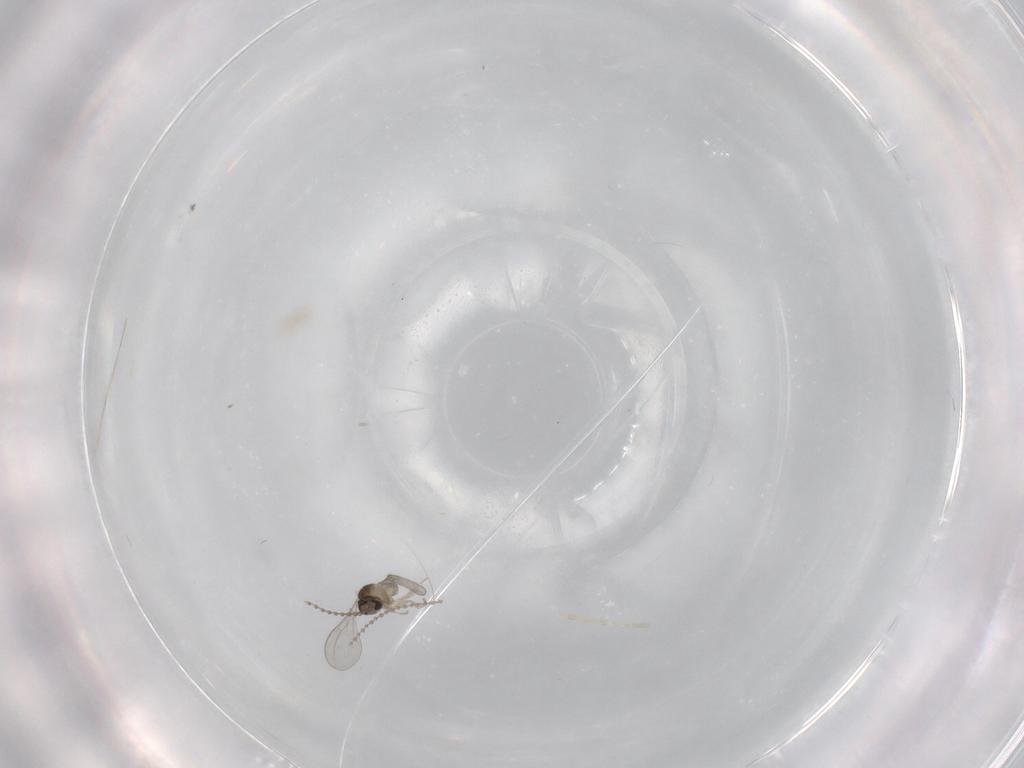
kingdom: Animalia
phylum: Arthropoda
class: Insecta
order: Diptera
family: Cecidomyiidae
